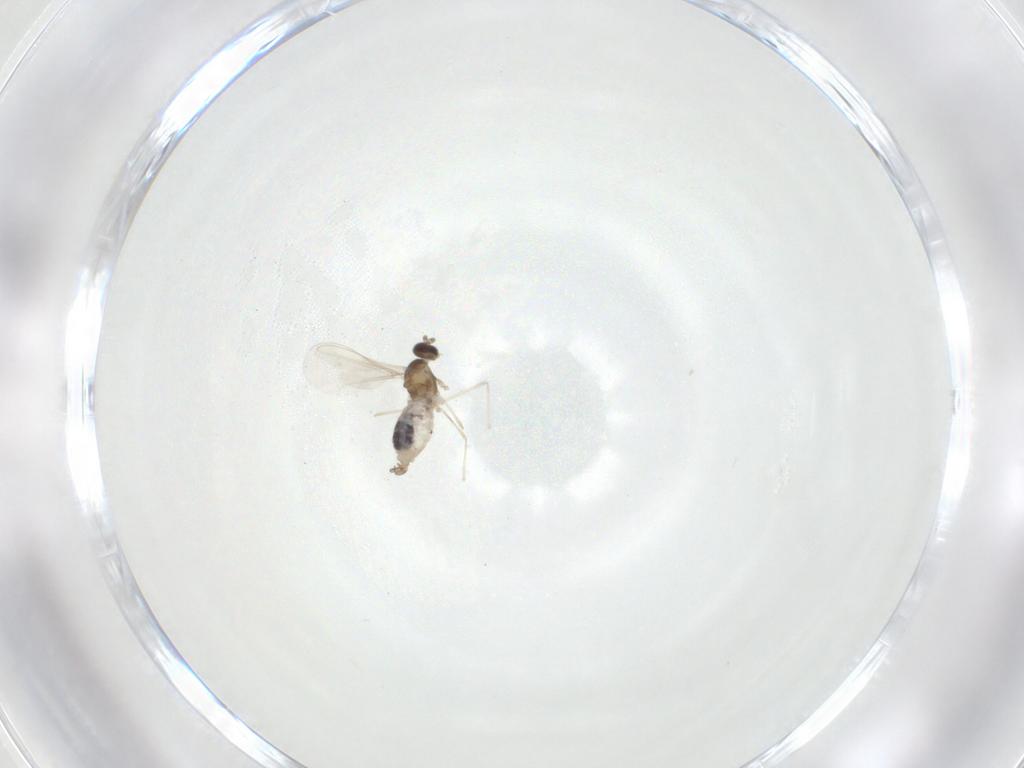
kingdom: Animalia
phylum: Arthropoda
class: Insecta
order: Diptera
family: Cecidomyiidae
